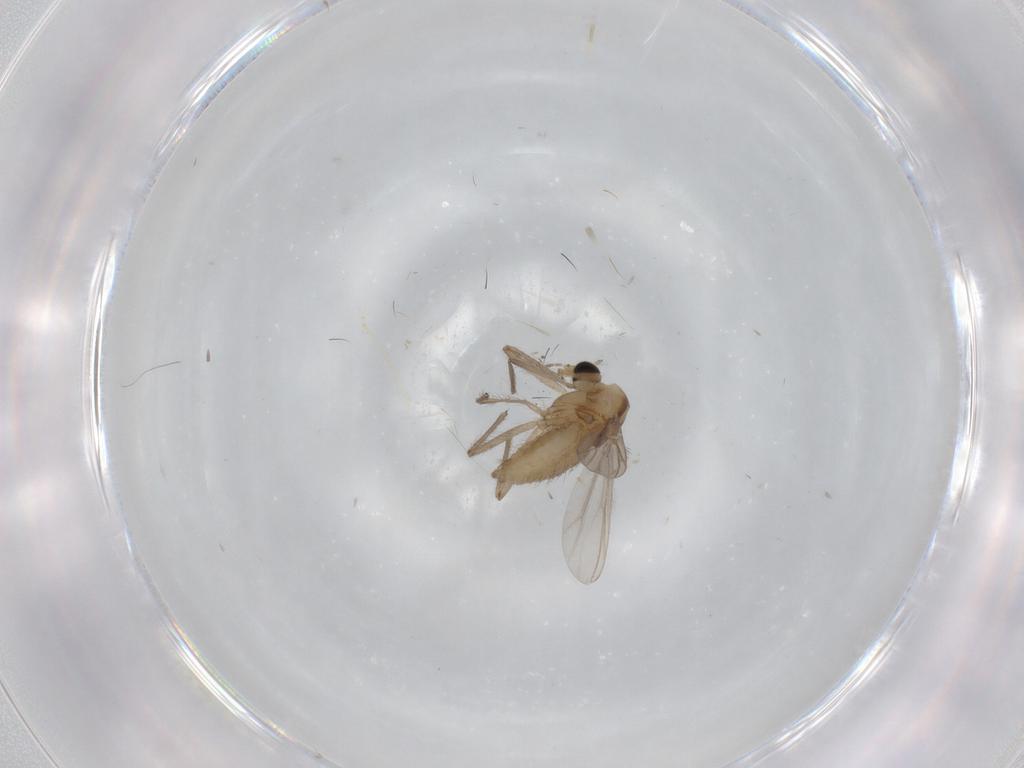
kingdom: Animalia
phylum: Arthropoda
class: Insecta
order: Diptera
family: Chironomidae
